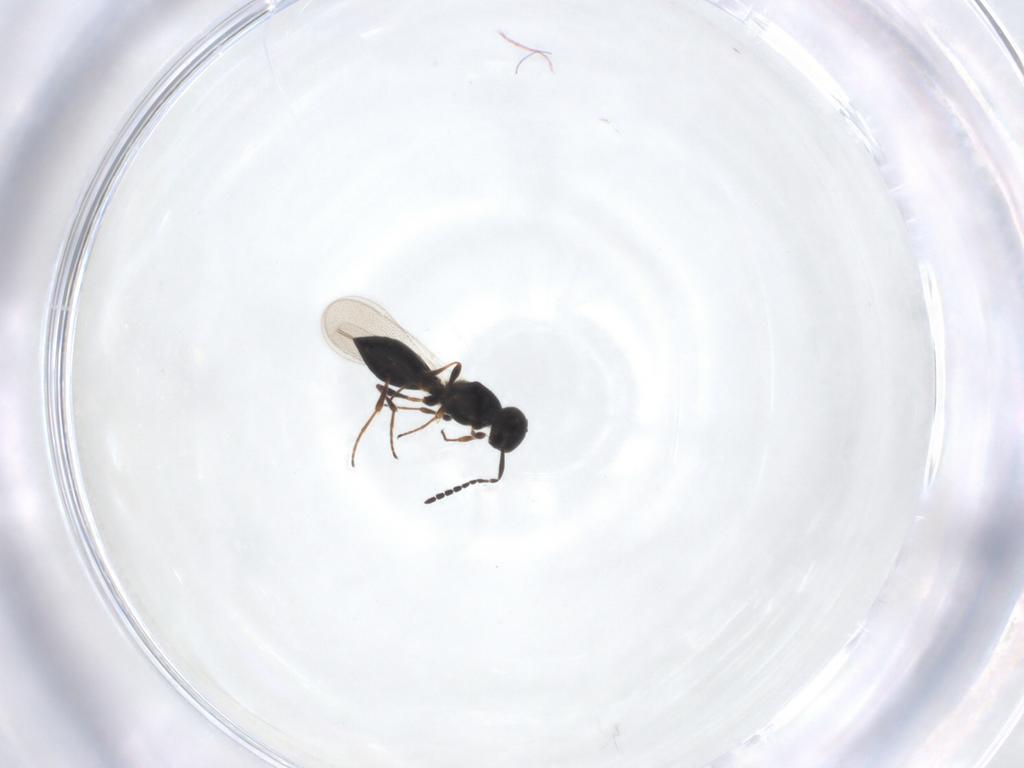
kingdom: Animalia
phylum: Arthropoda
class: Insecta
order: Hymenoptera
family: Platygastridae
